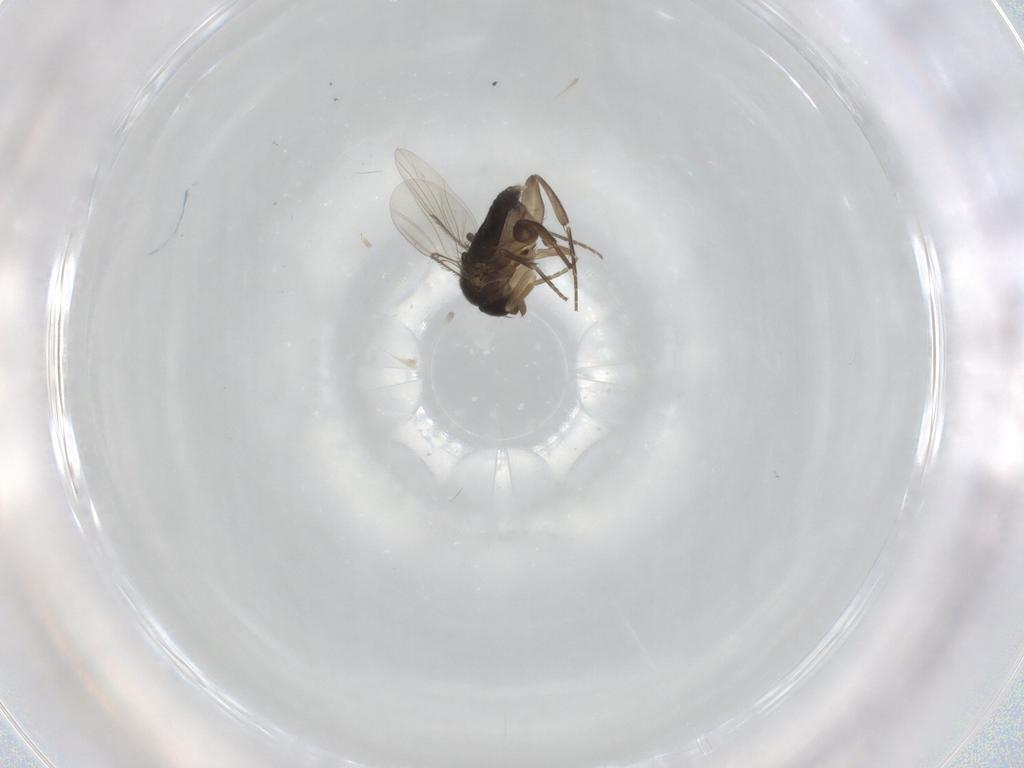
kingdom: Animalia
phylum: Arthropoda
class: Insecta
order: Diptera
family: Phoridae
